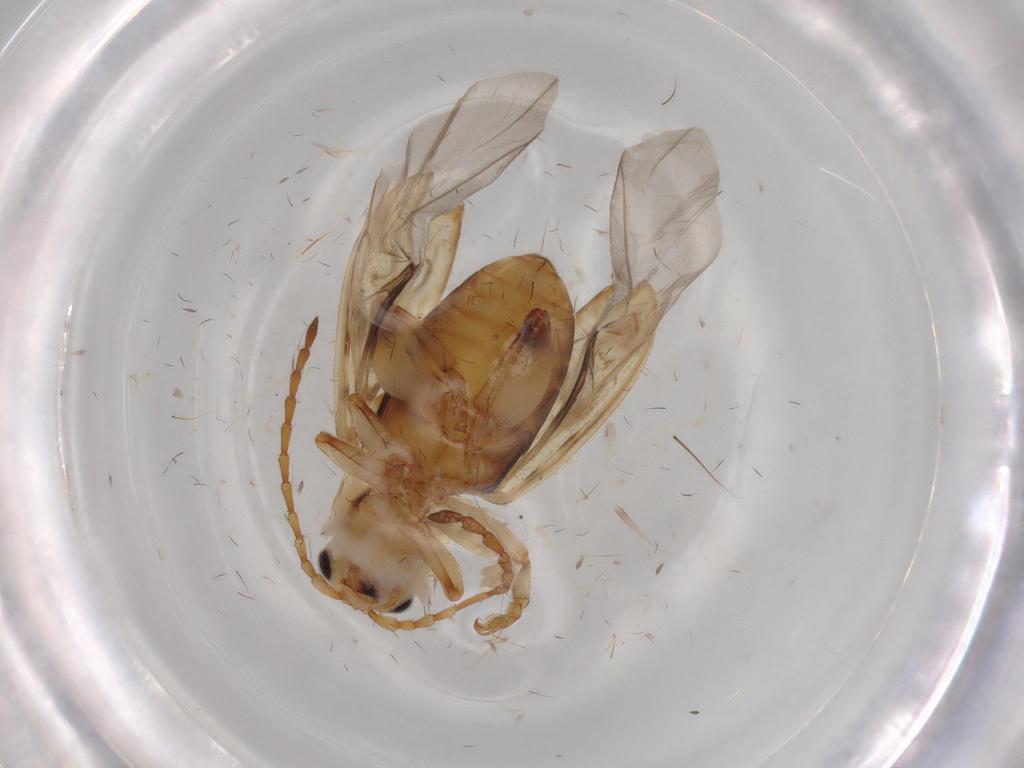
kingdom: Animalia
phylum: Arthropoda
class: Insecta
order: Coleoptera
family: Chrysomelidae
